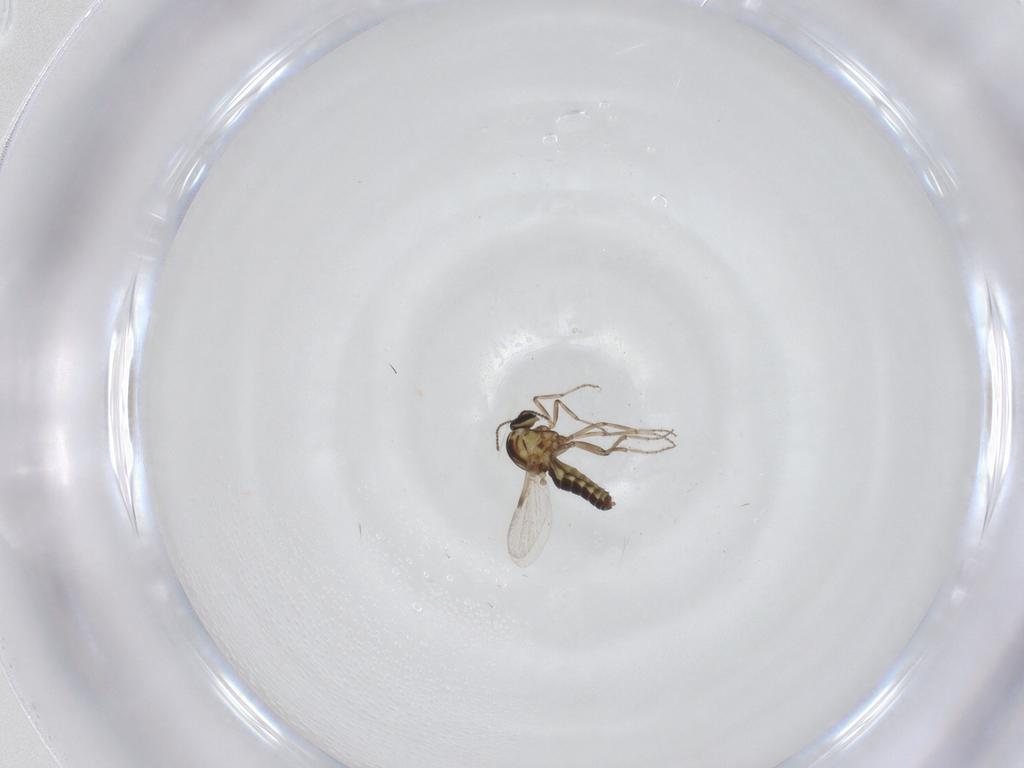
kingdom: Animalia
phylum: Arthropoda
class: Insecta
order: Diptera
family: Ceratopogonidae
